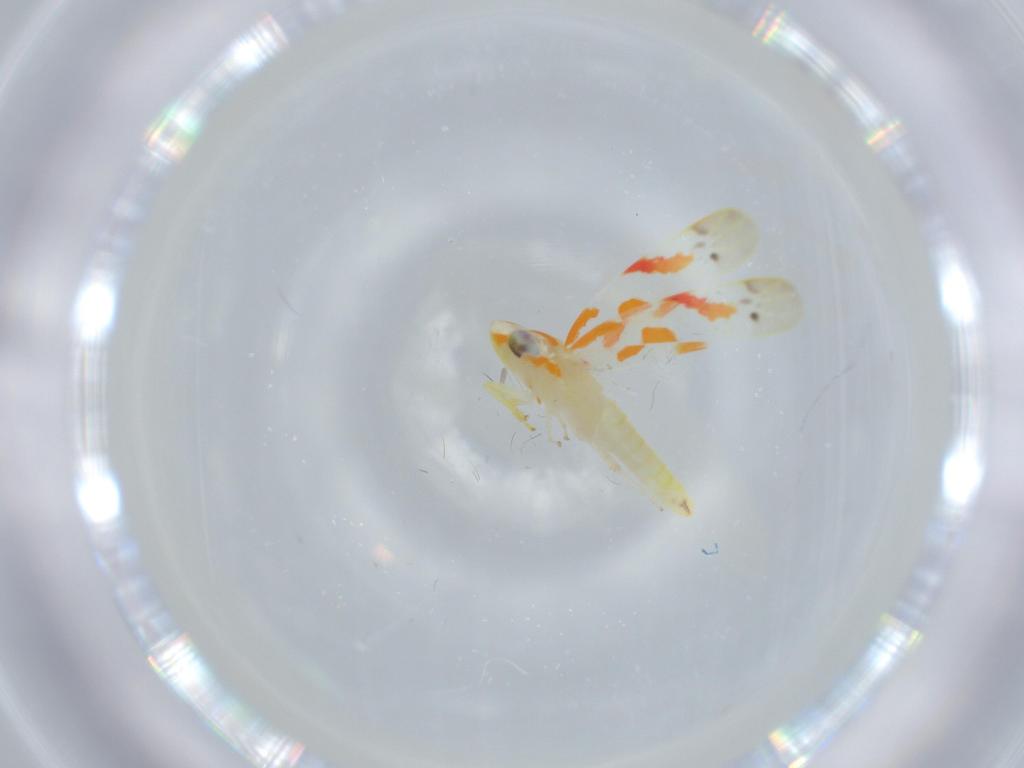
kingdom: Animalia
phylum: Arthropoda
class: Insecta
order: Hemiptera
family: Cicadellidae
